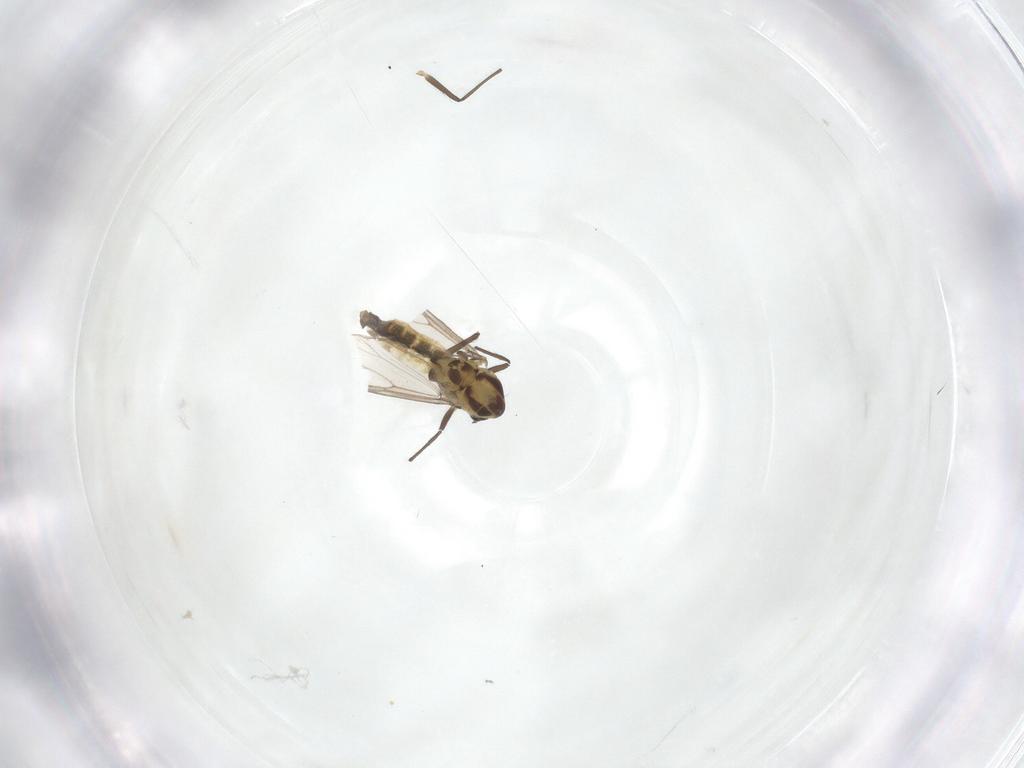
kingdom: Animalia
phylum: Arthropoda
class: Insecta
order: Diptera
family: Chironomidae
